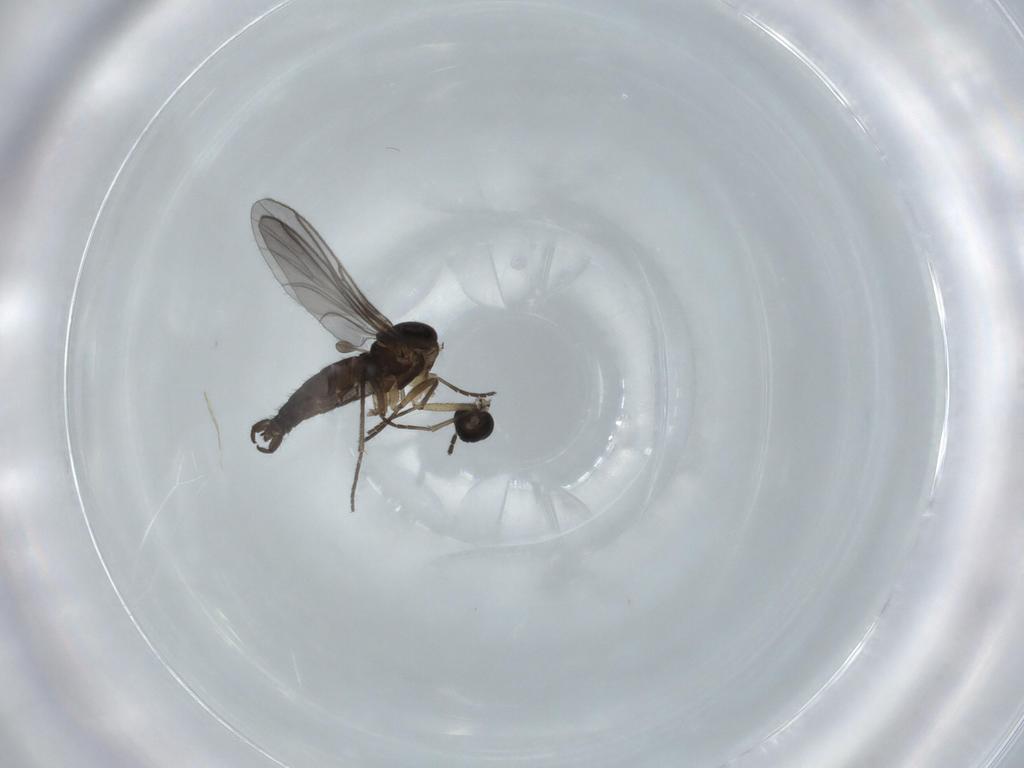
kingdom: Animalia
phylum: Arthropoda
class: Insecta
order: Diptera
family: Sciaridae
